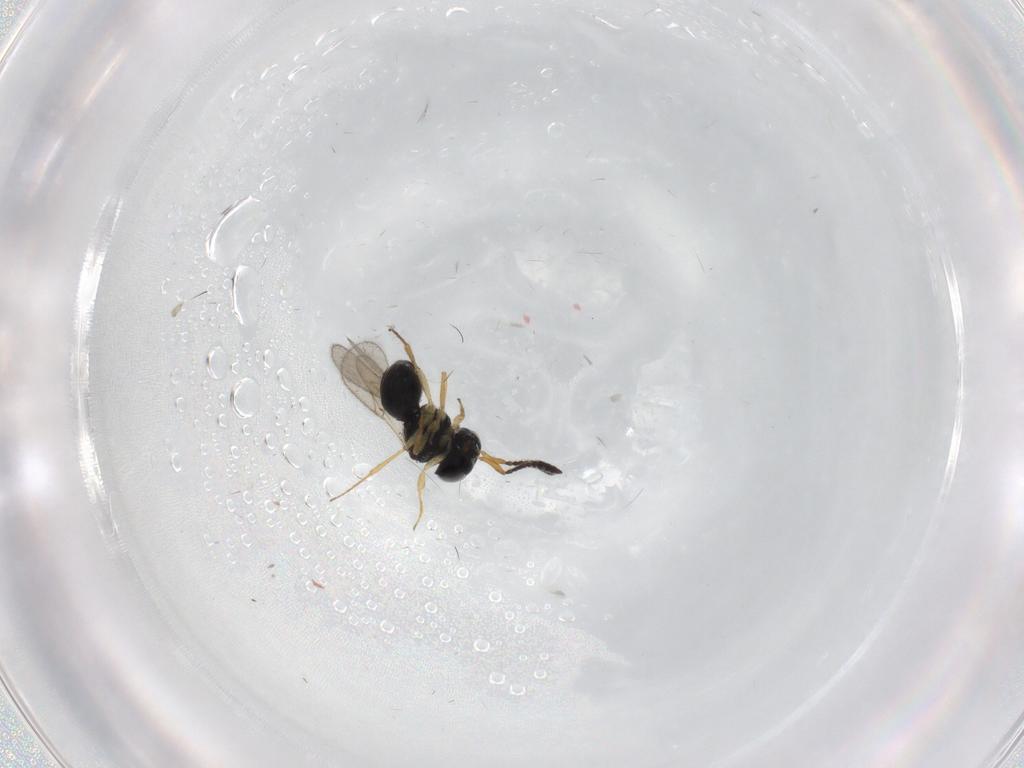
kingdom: Animalia
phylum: Arthropoda
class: Insecta
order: Hymenoptera
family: Scelionidae
